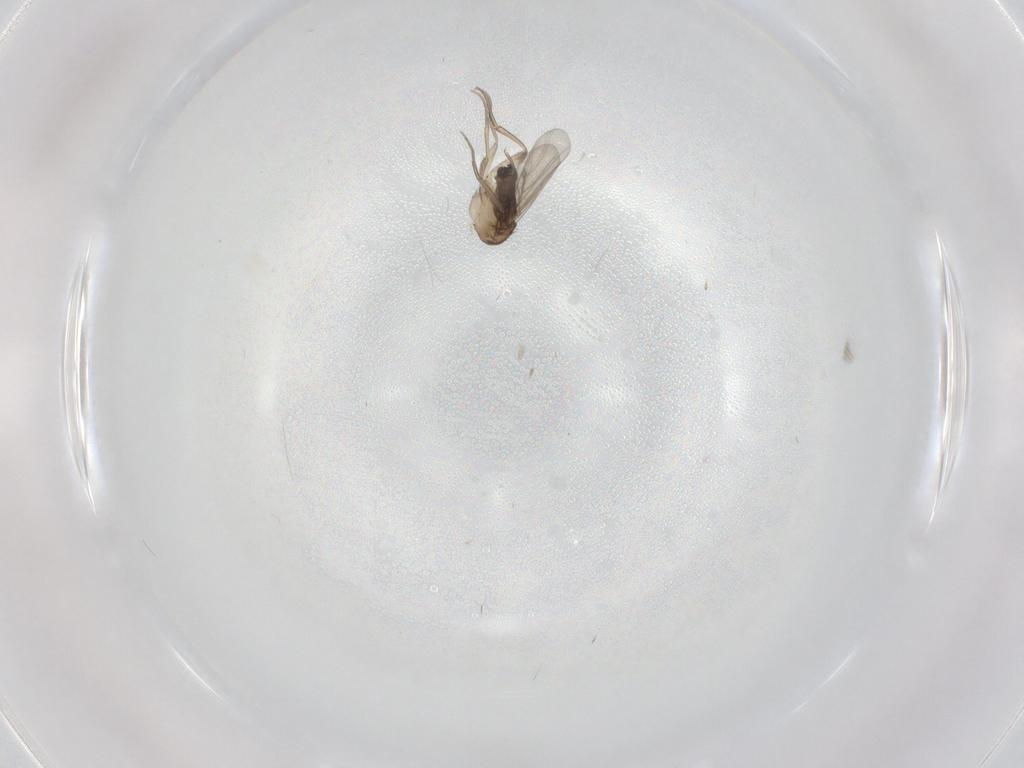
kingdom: Animalia
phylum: Arthropoda
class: Insecta
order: Diptera
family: Phoridae
